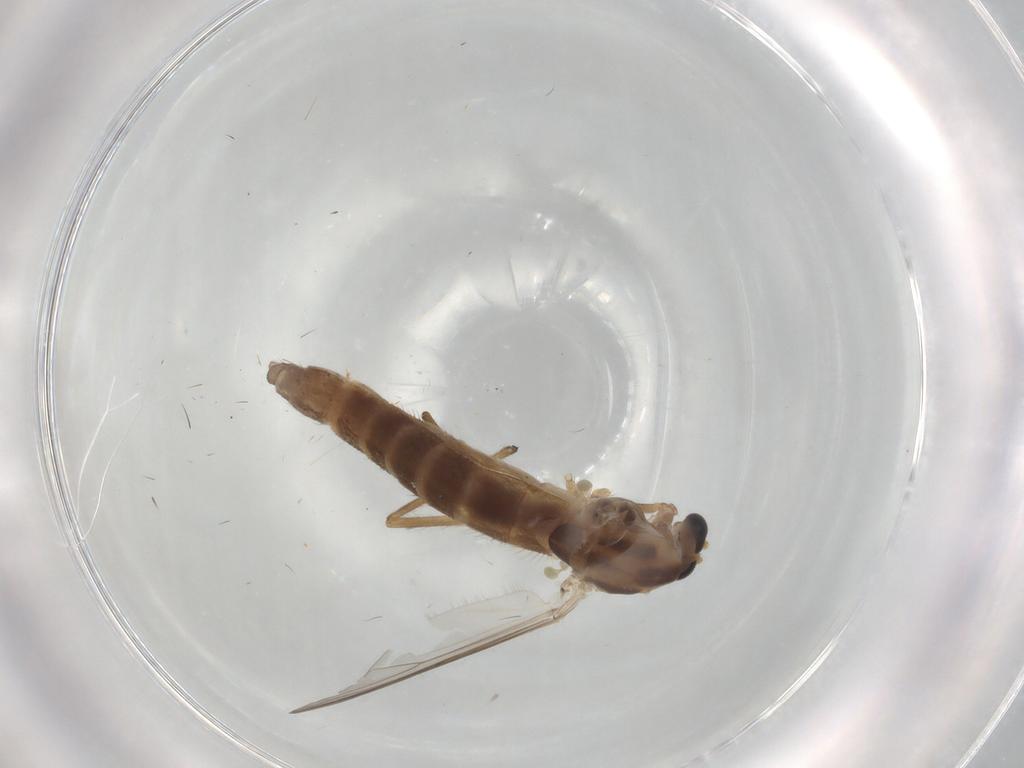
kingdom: Animalia
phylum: Arthropoda
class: Insecta
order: Diptera
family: Chironomidae
